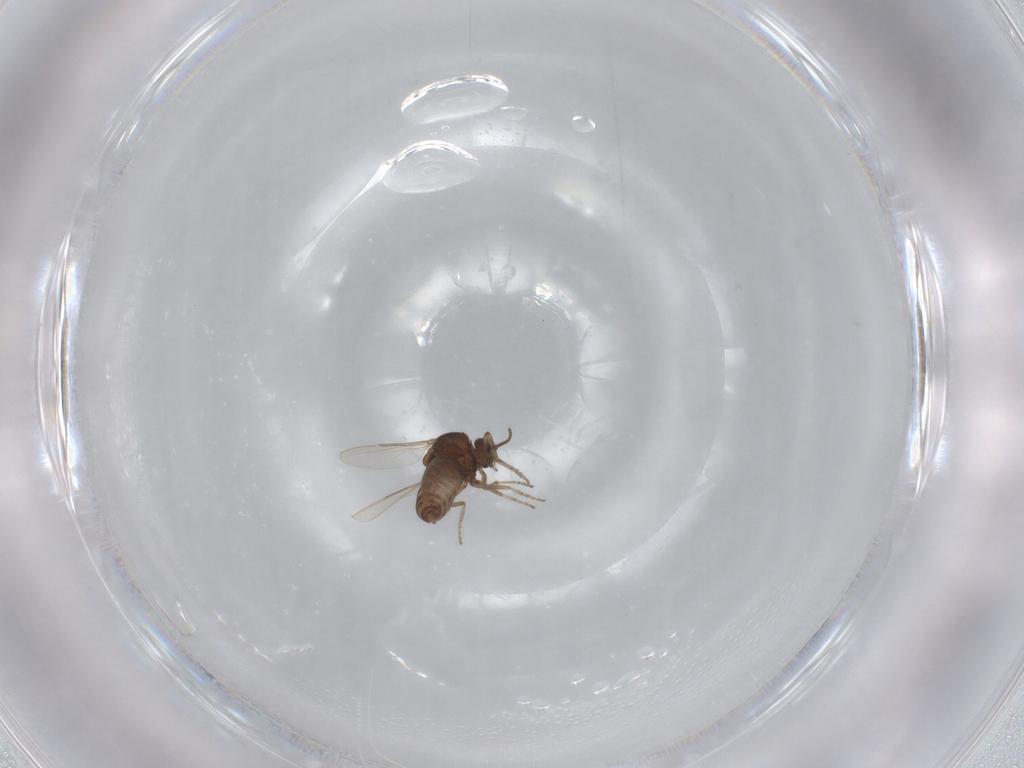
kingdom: Animalia
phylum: Arthropoda
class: Insecta
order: Diptera
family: Ceratopogonidae
